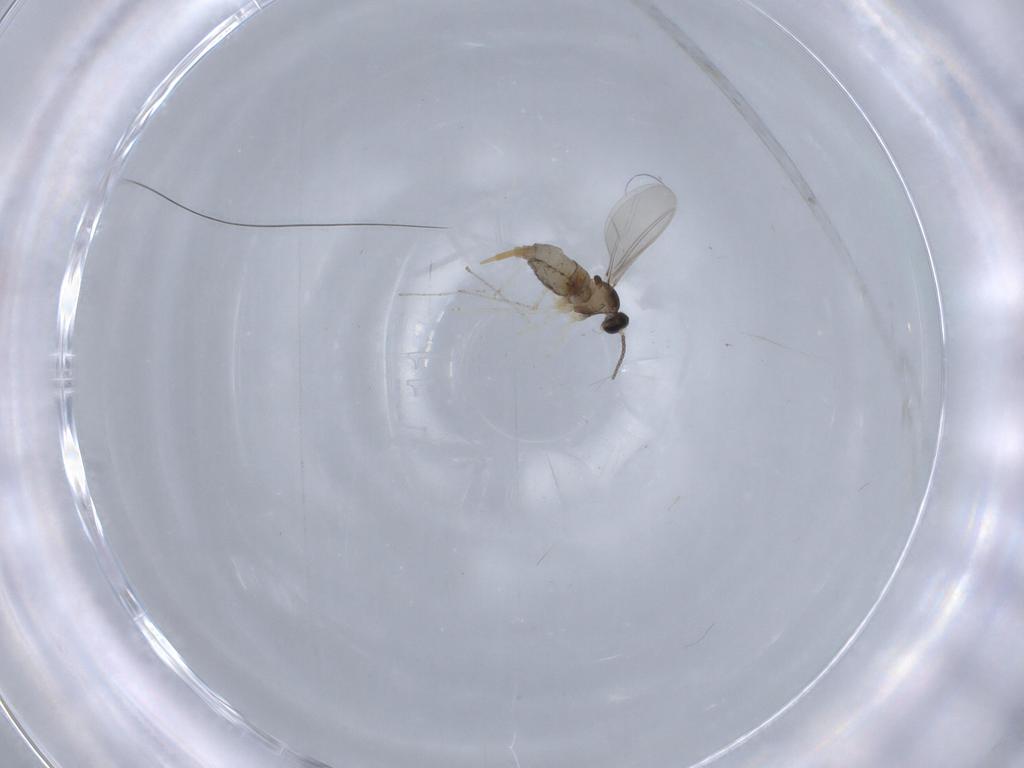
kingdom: Animalia
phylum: Arthropoda
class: Insecta
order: Diptera
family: Cecidomyiidae
